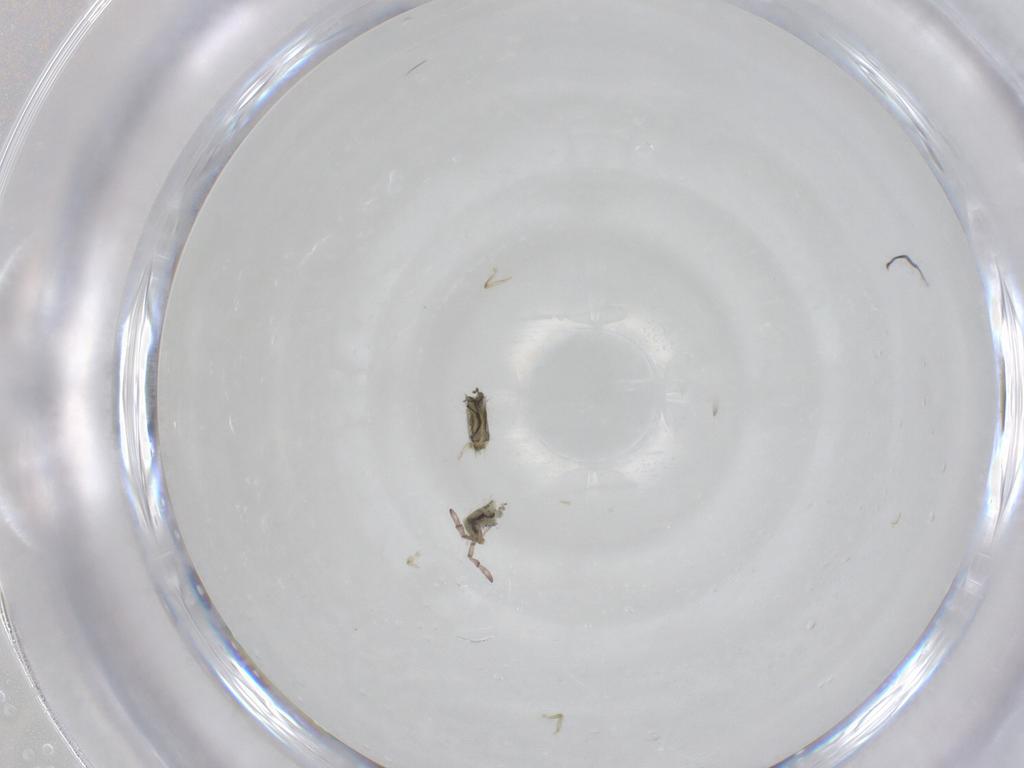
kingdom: Animalia
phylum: Arthropoda
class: Collembola
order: Entomobryomorpha
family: Entomobryidae
